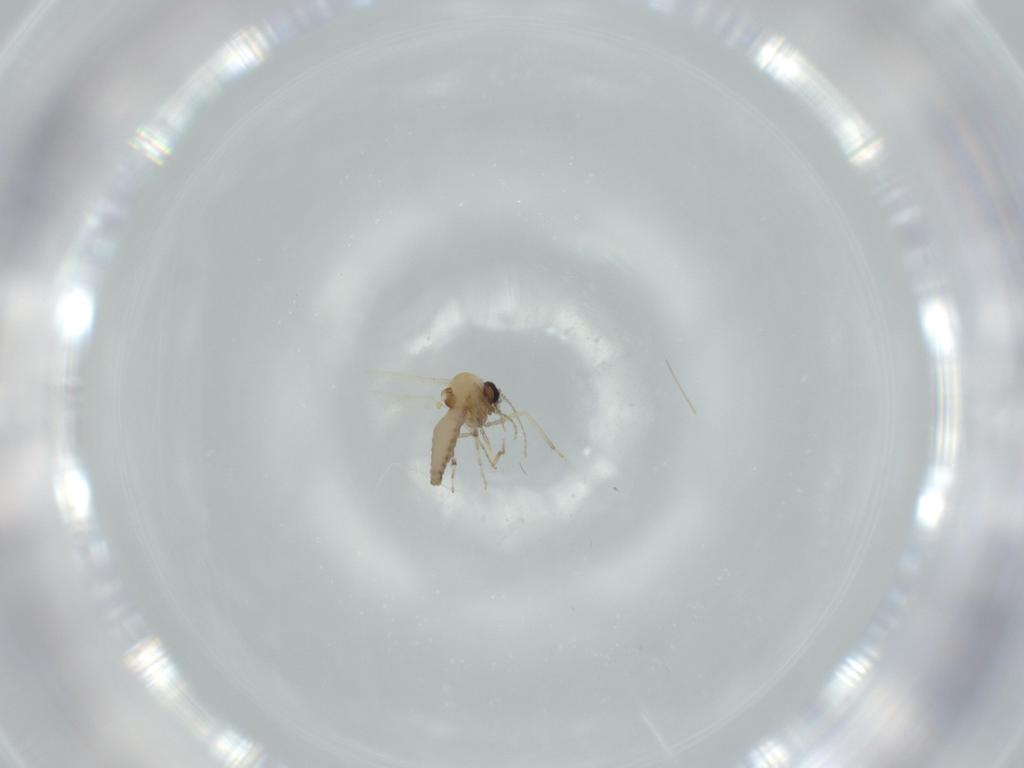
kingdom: Animalia
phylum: Arthropoda
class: Insecta
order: Diptera
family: Ceratopogonidae
